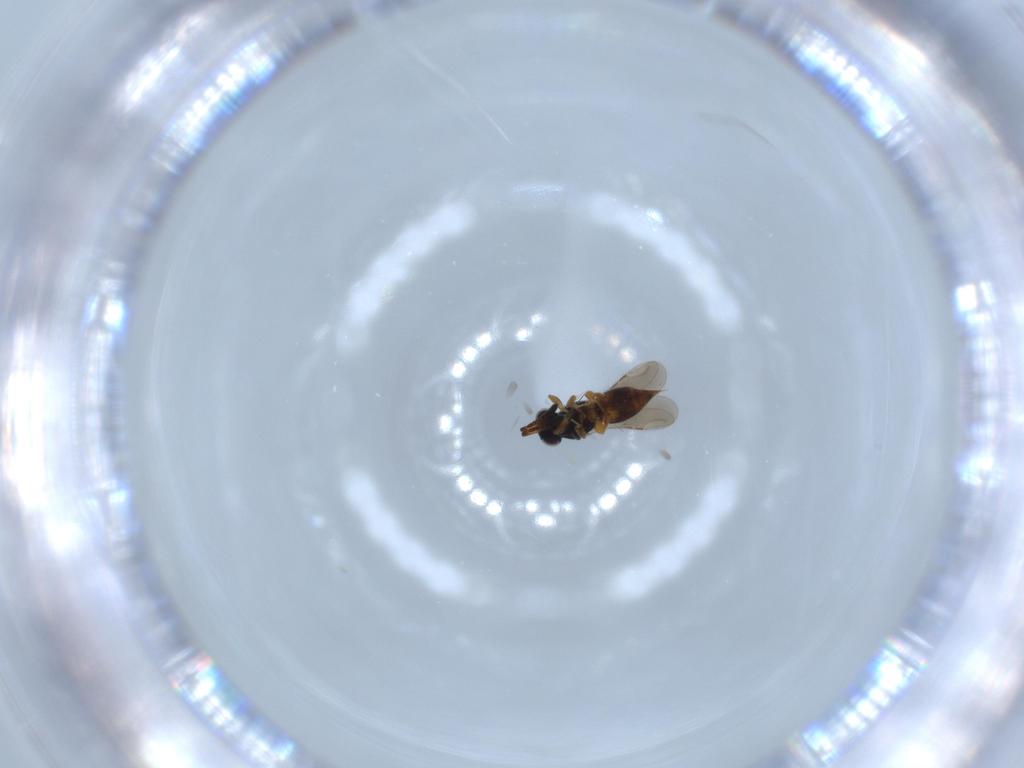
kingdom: Animalia
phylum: Arthropoda
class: Insecta
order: Hymenoptera
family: Ceraphronidae
